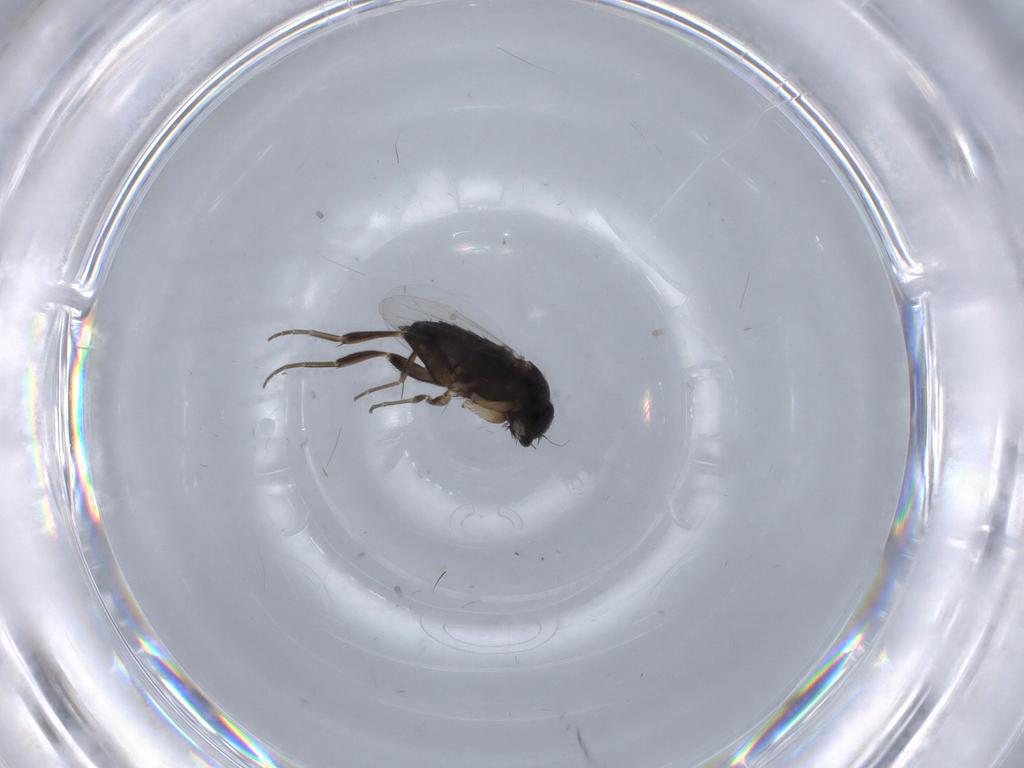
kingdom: Animalia
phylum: Arthropoda
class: Insecta
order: Diptera
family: Phoridae
